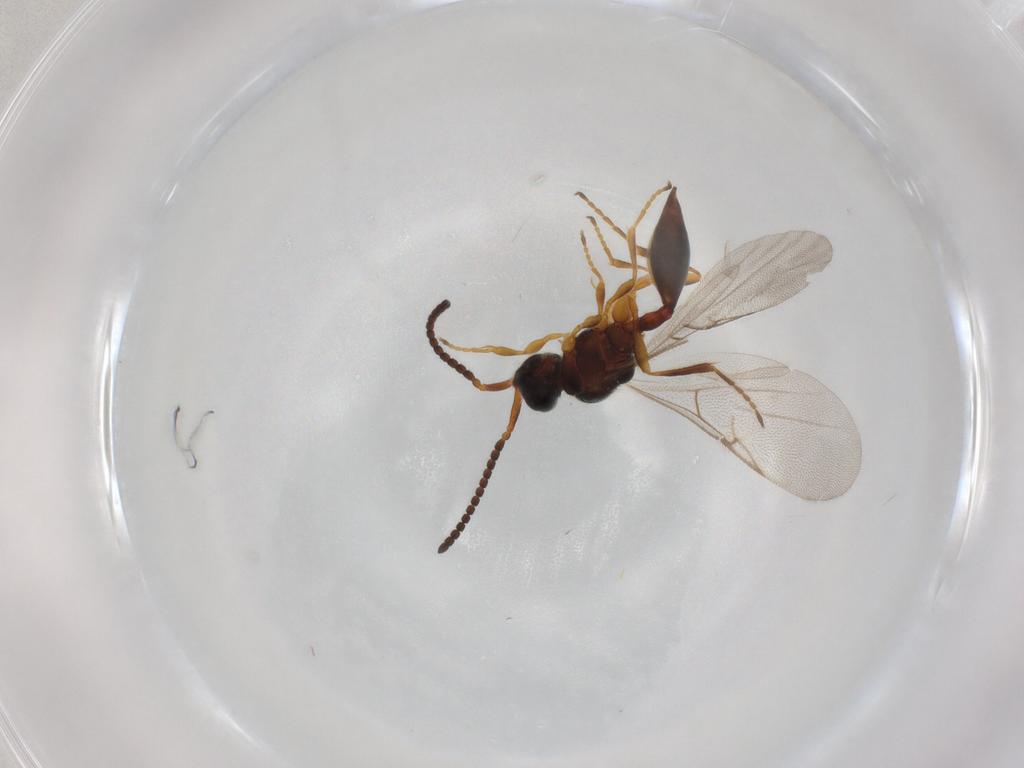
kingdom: Animalia
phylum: Arthropoda
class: Insecta
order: Hymenoptera
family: Diapriidae
